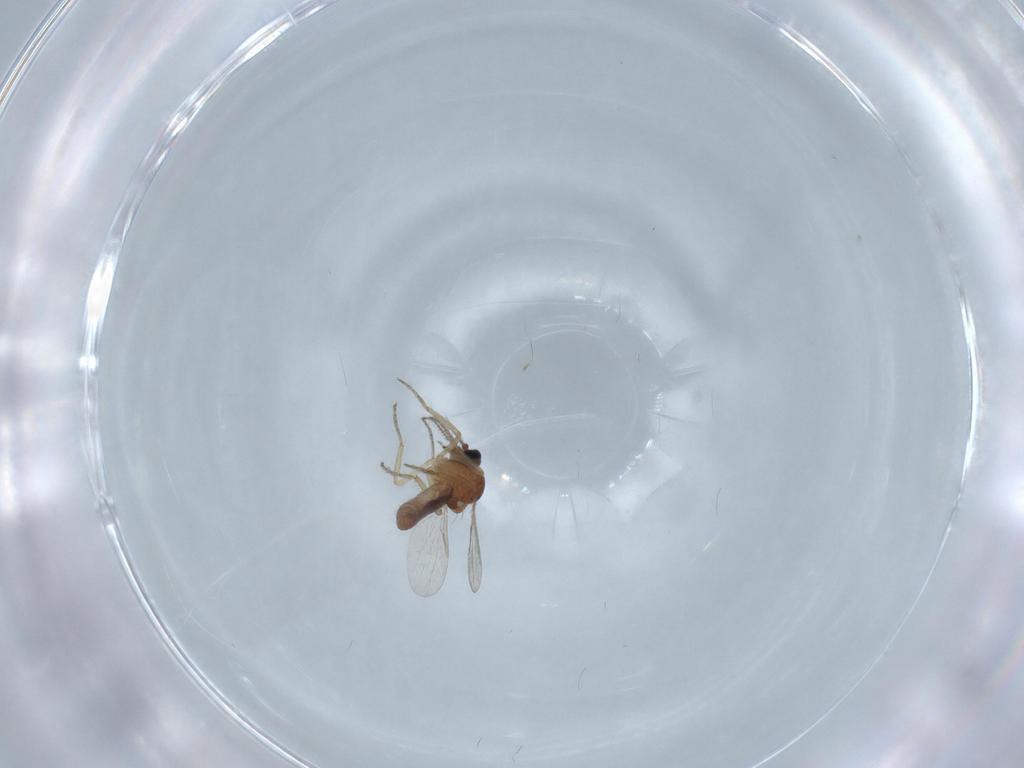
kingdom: Animalia
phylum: Arthropoda
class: Insecta
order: Diptera
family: Ceratopogonidae
